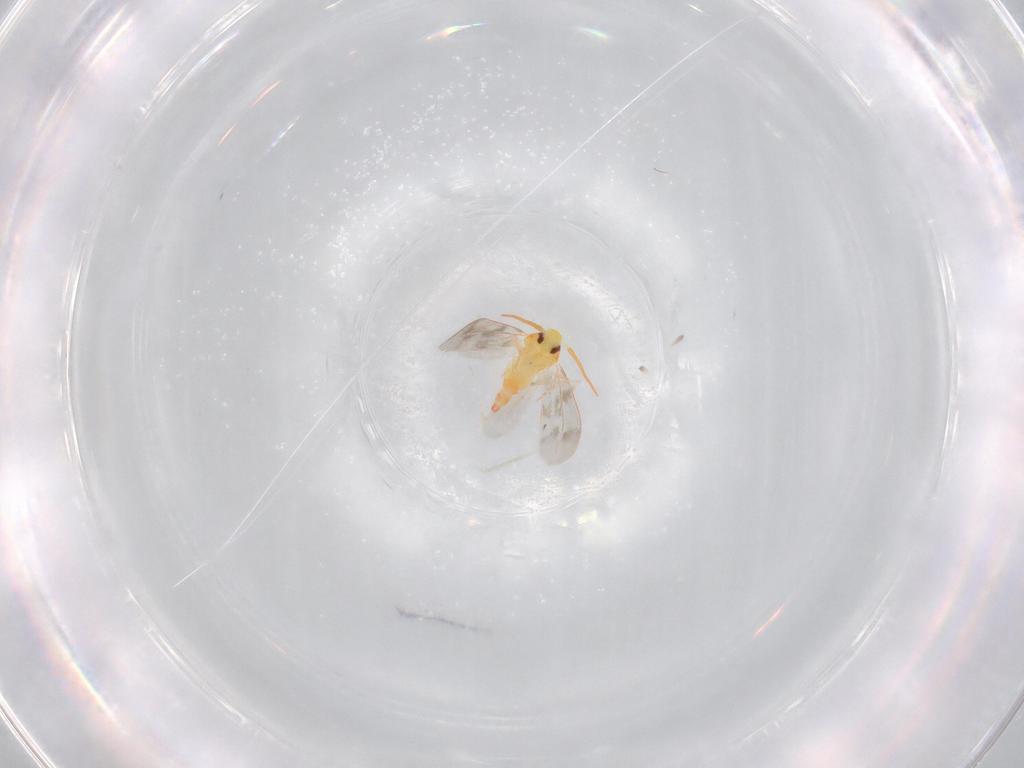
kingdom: Animalia
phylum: Arthropoda
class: Insecta
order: Hemiptera
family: Aleyrodidae
